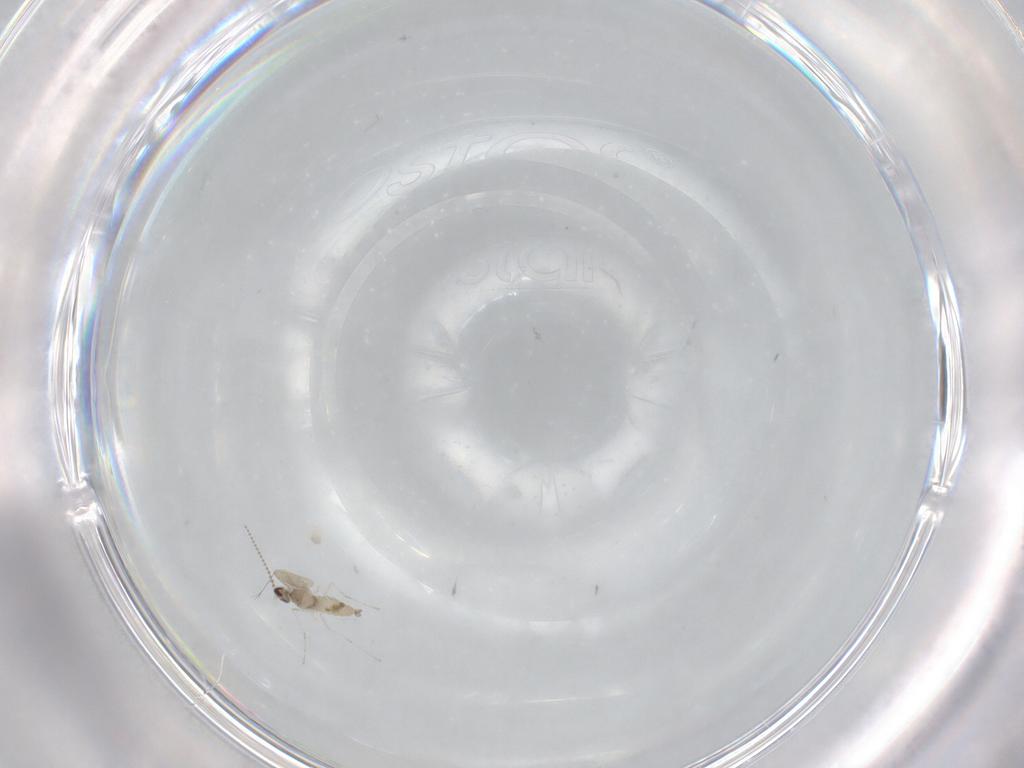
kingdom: Animalia
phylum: Arthropoda
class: Insecta
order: Diptera
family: Cecidomyiidae
